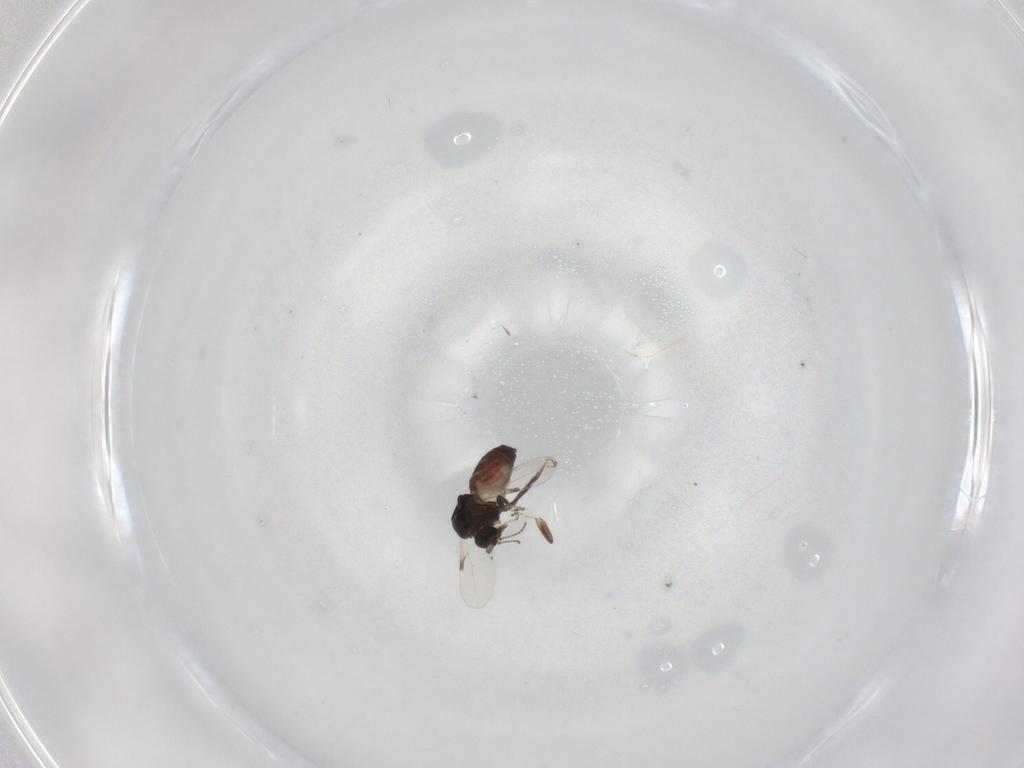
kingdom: Animalia
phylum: Arthropoda
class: Insecta
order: Diptera
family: Ceratopogonidae
